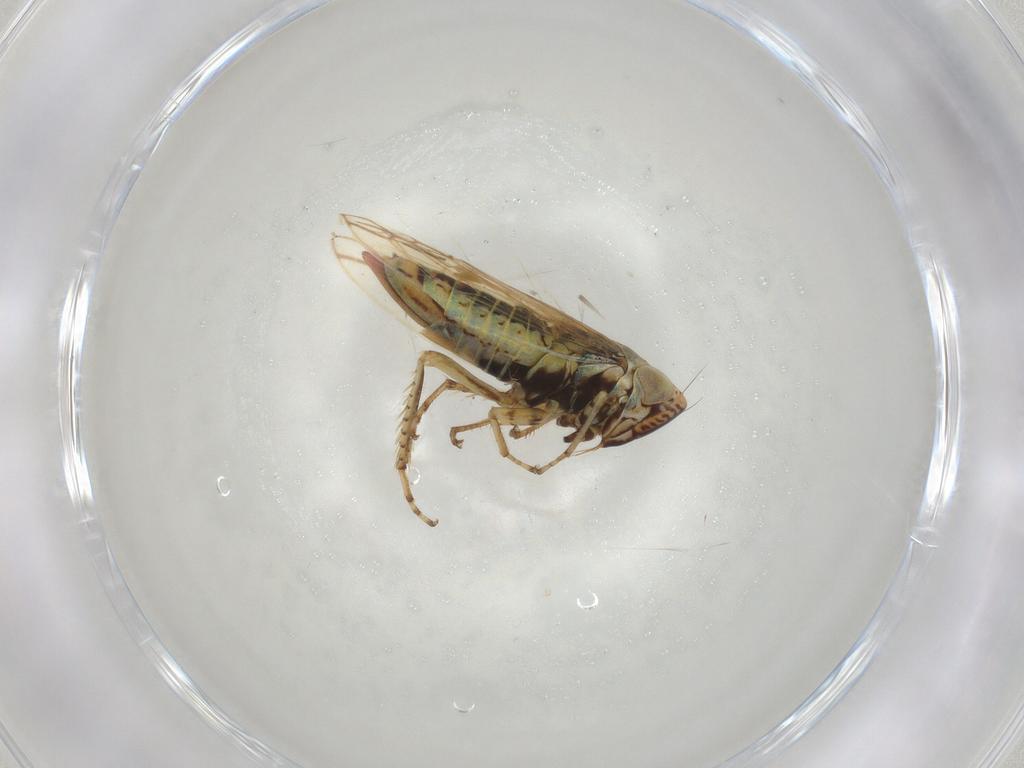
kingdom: Animalia
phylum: Arthropoda
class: Insecta
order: Hemiptera
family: Cicadellidae
